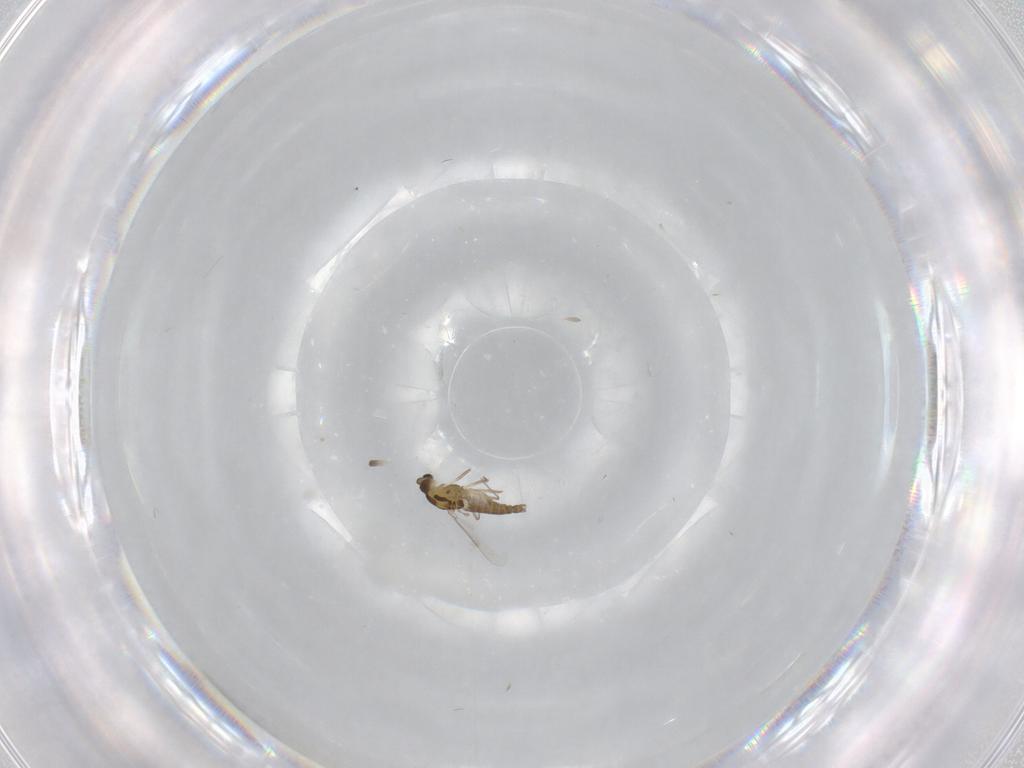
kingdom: Animalia
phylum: Arthropoda
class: Insecta
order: Diptera
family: Chironomidae
